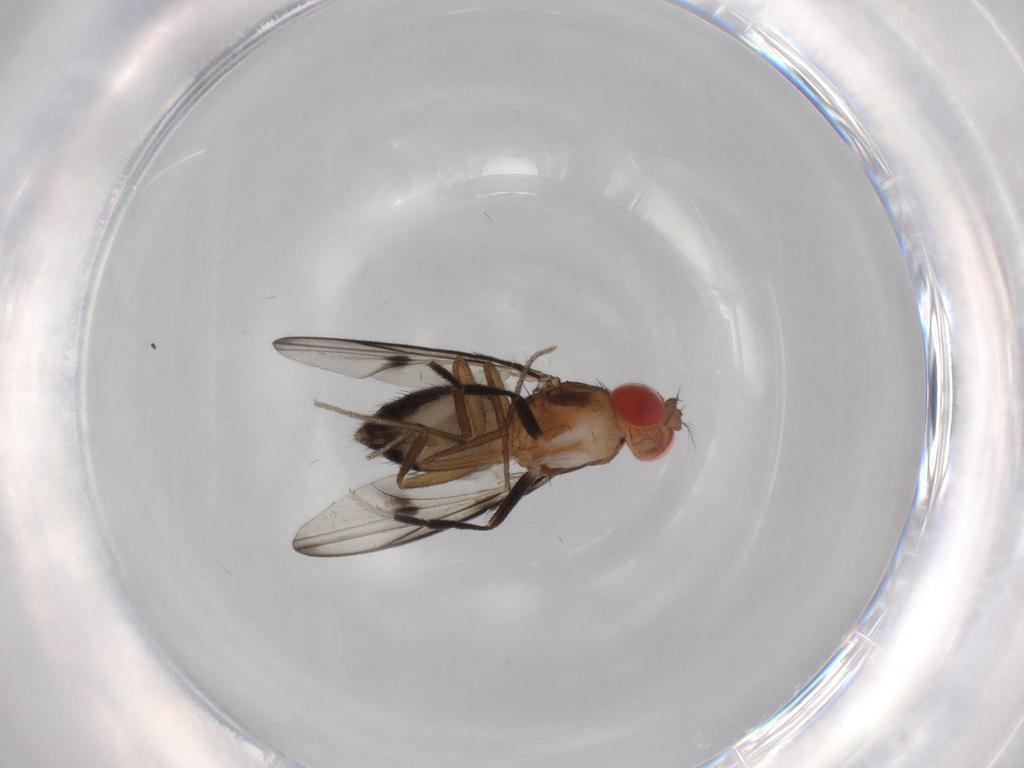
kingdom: Animalia
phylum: Arthropoda
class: Insecta
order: Diptera
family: Drosophilidae
